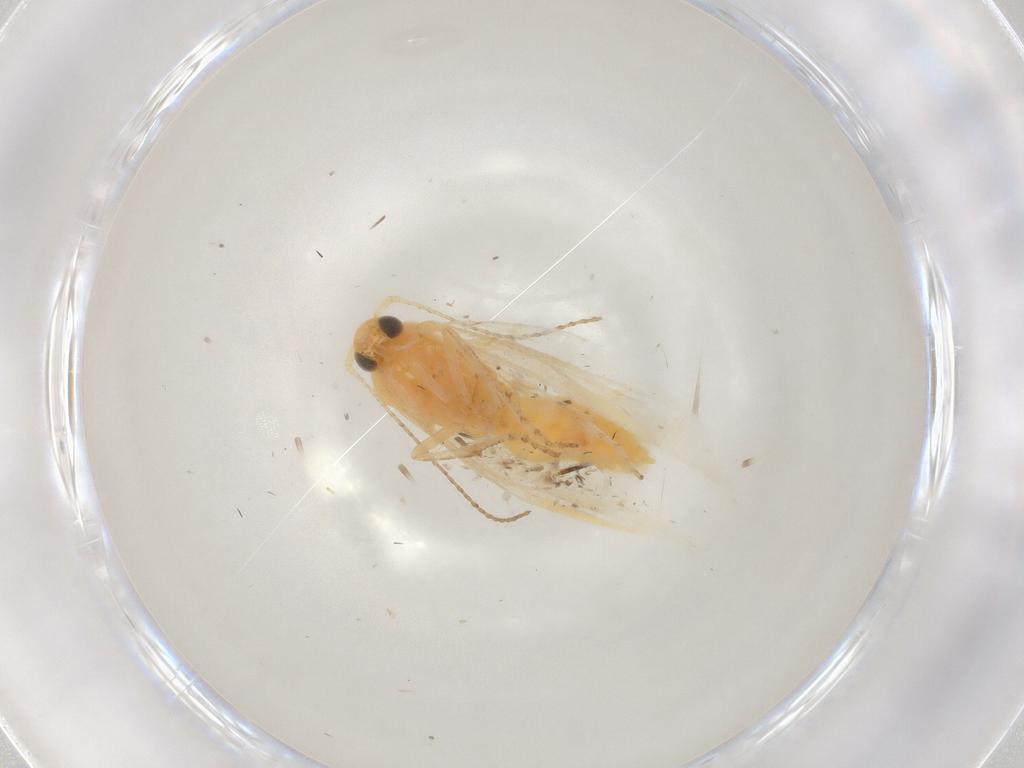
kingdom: Animalia
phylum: Arthropoda
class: Insecta
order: Lepidoptera
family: Argyresthiidae
